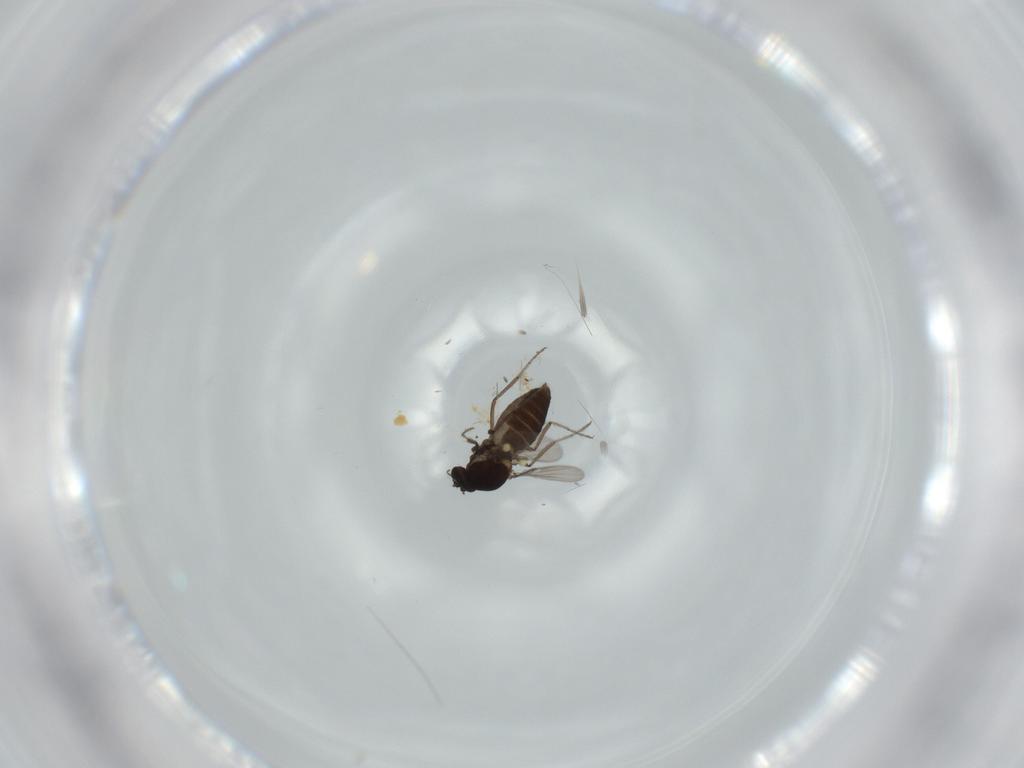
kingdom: Animalia
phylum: Arthropoda
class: Insecta
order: Diptera
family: Ceratopogonidae
